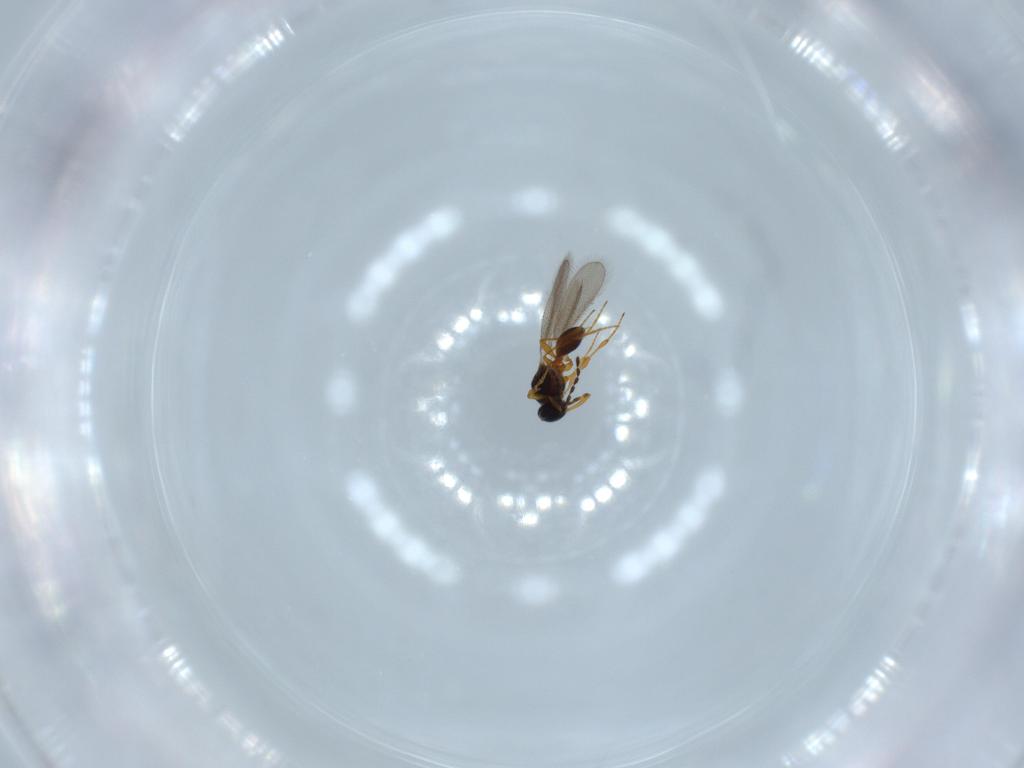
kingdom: Animalia
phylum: Arthropoda
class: Insecta
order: Hymenoptera
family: Platygastridae
